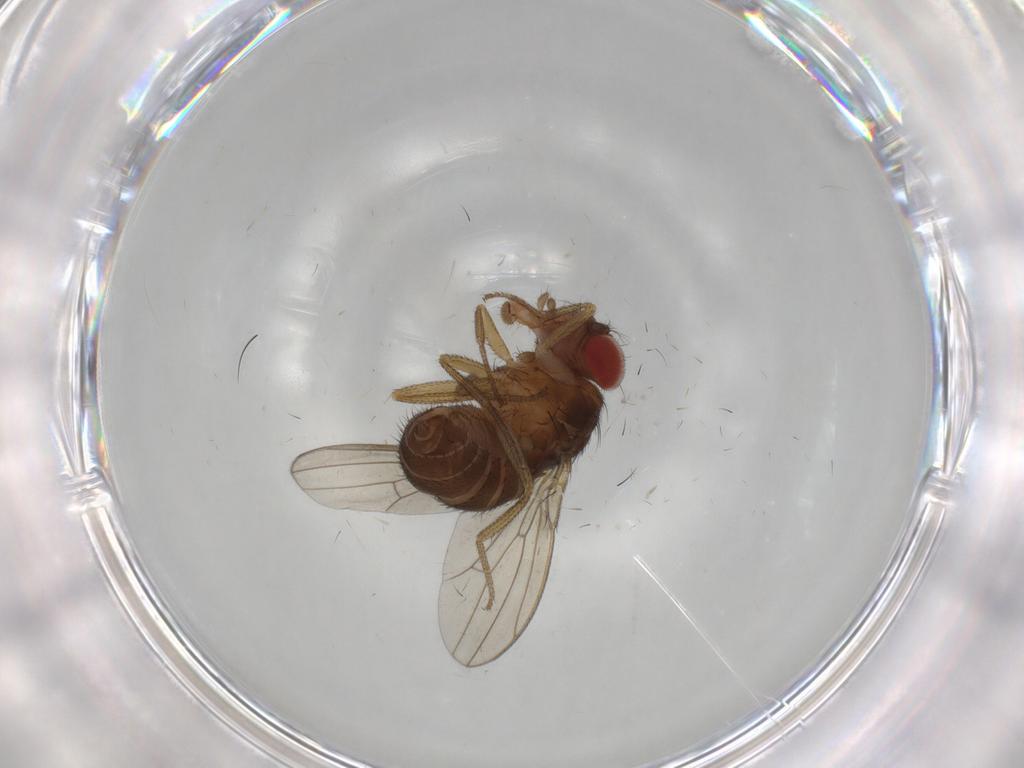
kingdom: Animalia
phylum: Arthropoda
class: Insecta
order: Diptera
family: Drosophilidae
